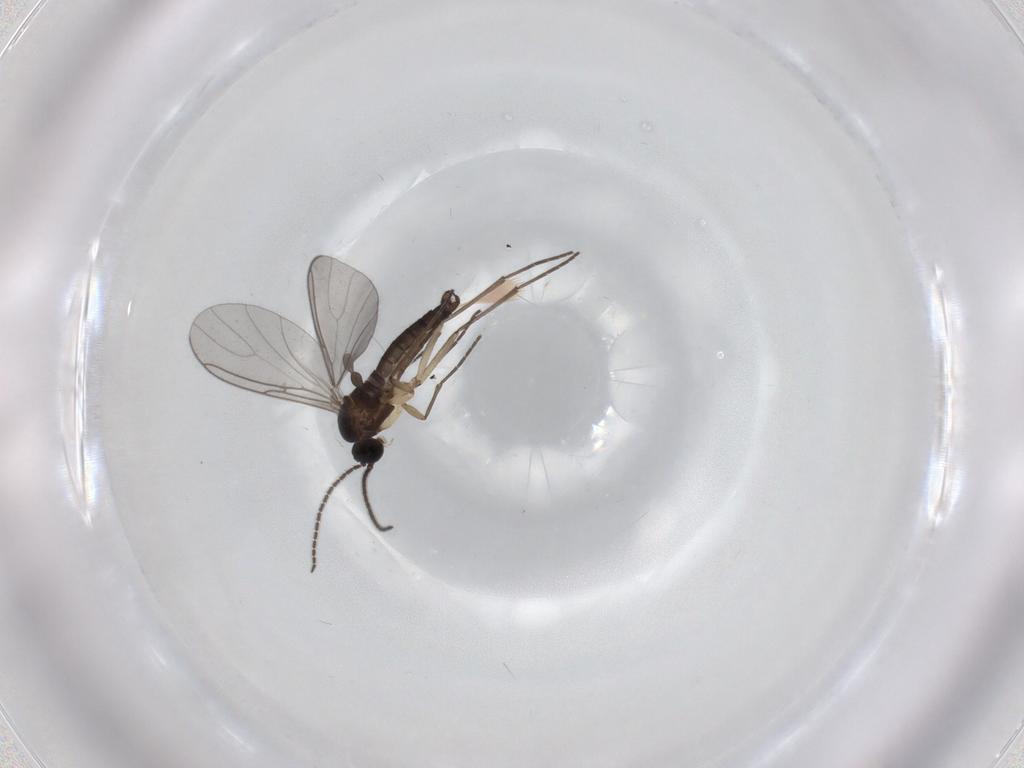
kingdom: Animalia
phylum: Arthropoda
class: Insecta
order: Diptera
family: Sciaridae
